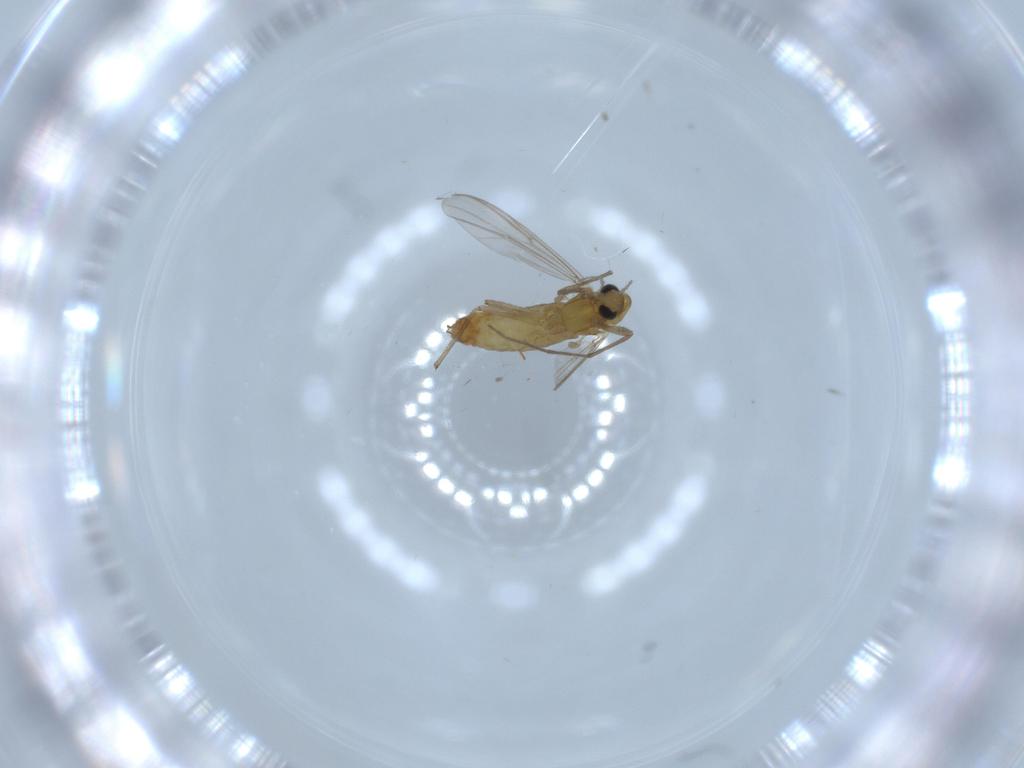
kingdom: Animalia
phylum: Arthropoda
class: Insecta
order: Diptera
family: Chironomidae
